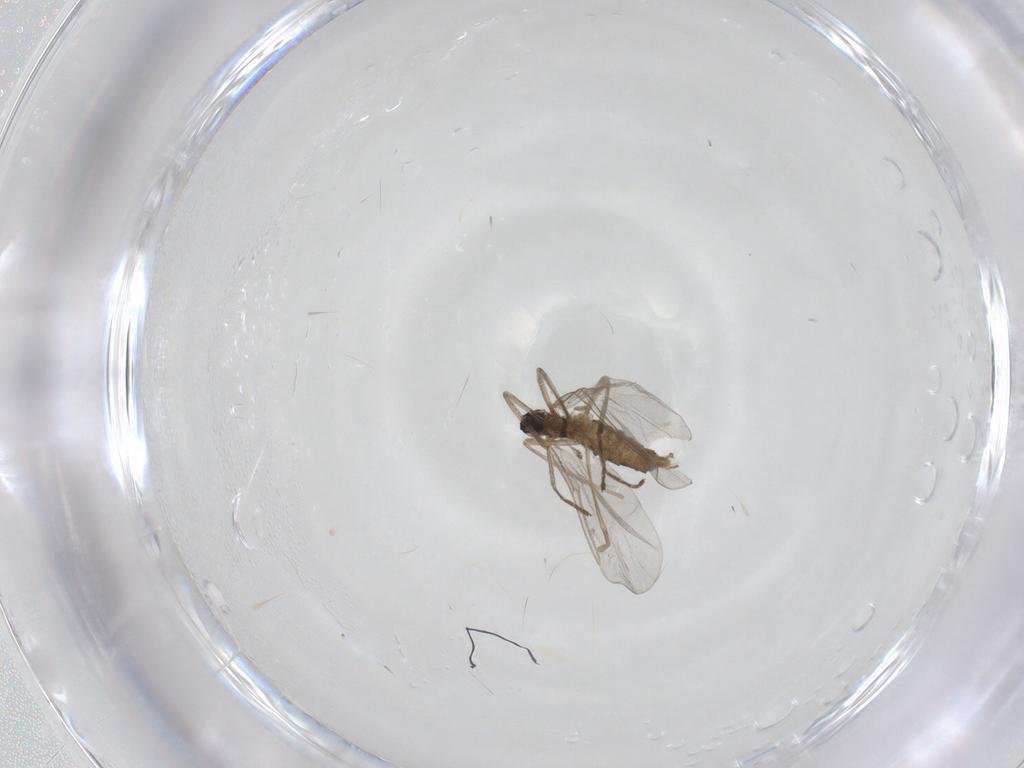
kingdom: Animalia
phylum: Arthropoda
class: Insecta
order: Diptera
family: Cecidomyiidae
